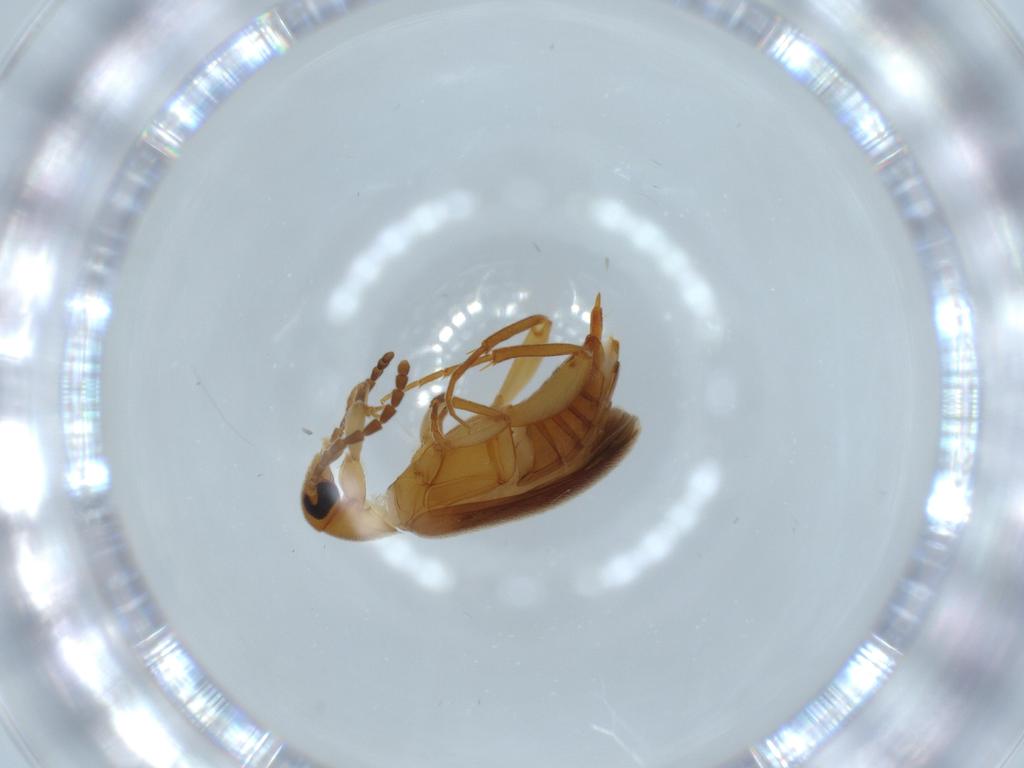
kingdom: Animalia
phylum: Arthropoda
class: Insecta
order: Coleoptera
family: Scraptiidae
